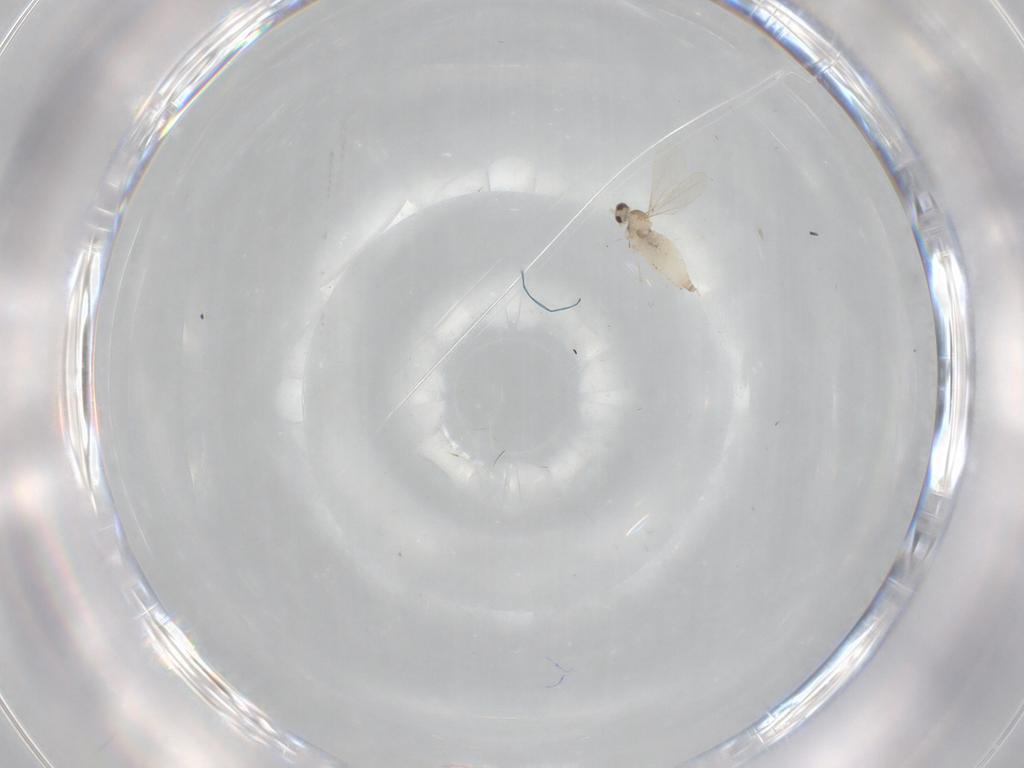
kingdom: Animalia
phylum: Arthropoda
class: Insecta
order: Diptera
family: Cecidomyiidae
